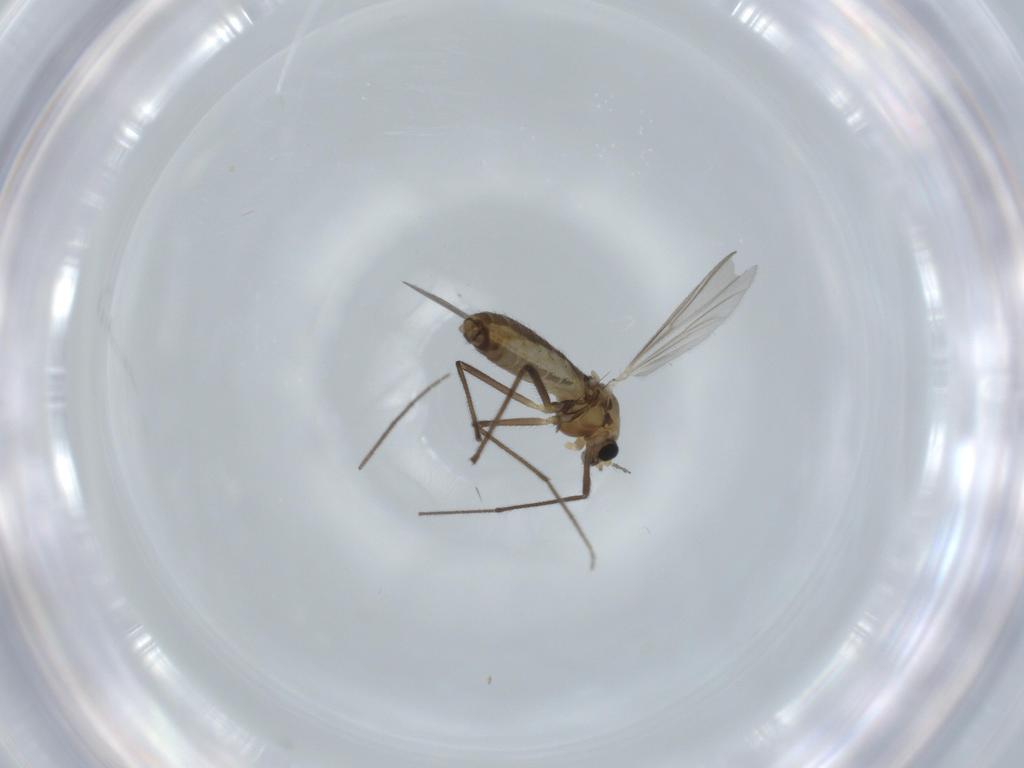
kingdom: Animalia
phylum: Arthropoda
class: Insecta
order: Diptera
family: Chironomidae
